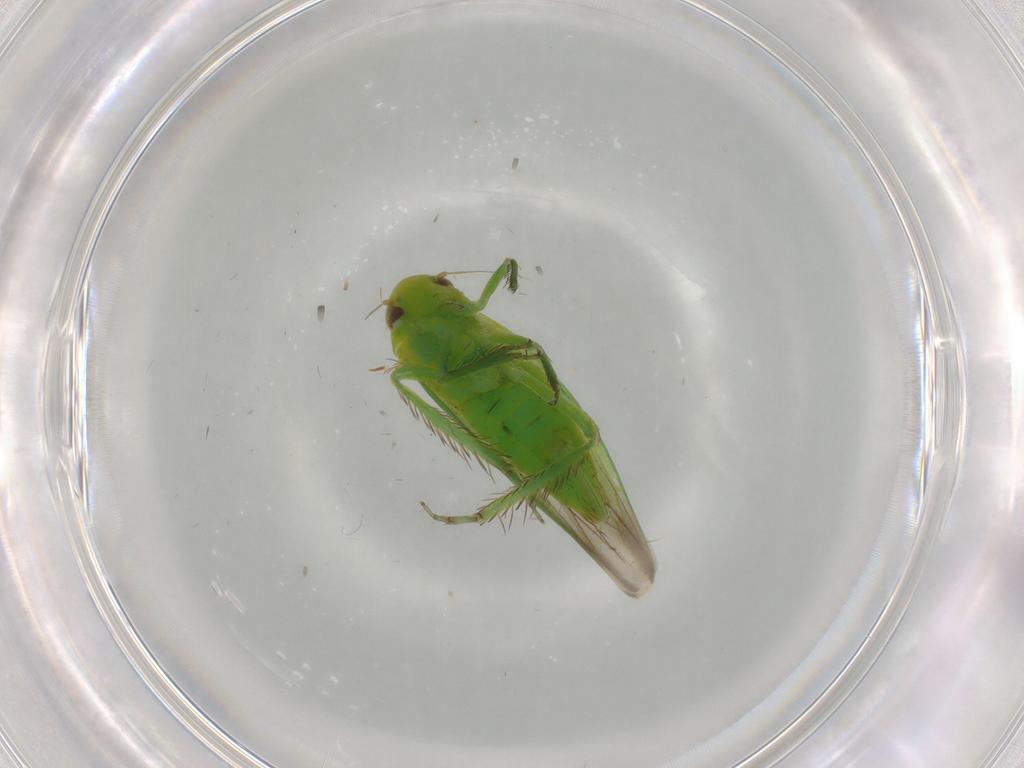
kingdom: Animalia
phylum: Arthropoda
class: Insecta
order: Hemiptera
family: Cicadellidae
